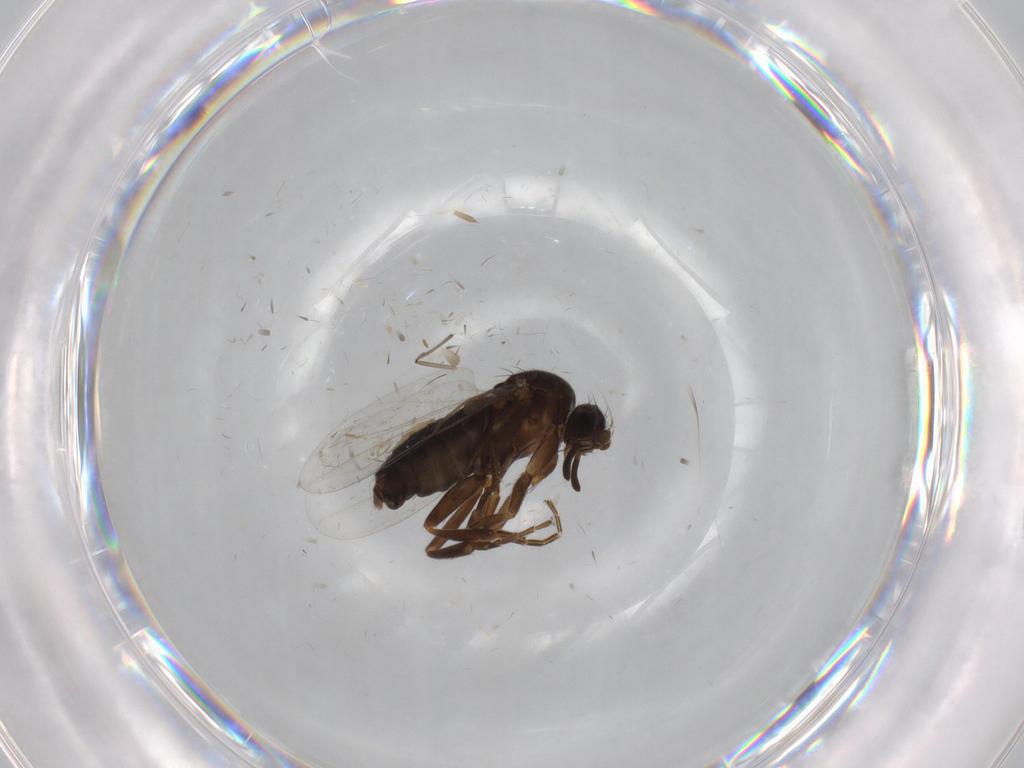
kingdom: Animalia
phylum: Arthropoda
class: Insecta
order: Diptera
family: Phoridae
